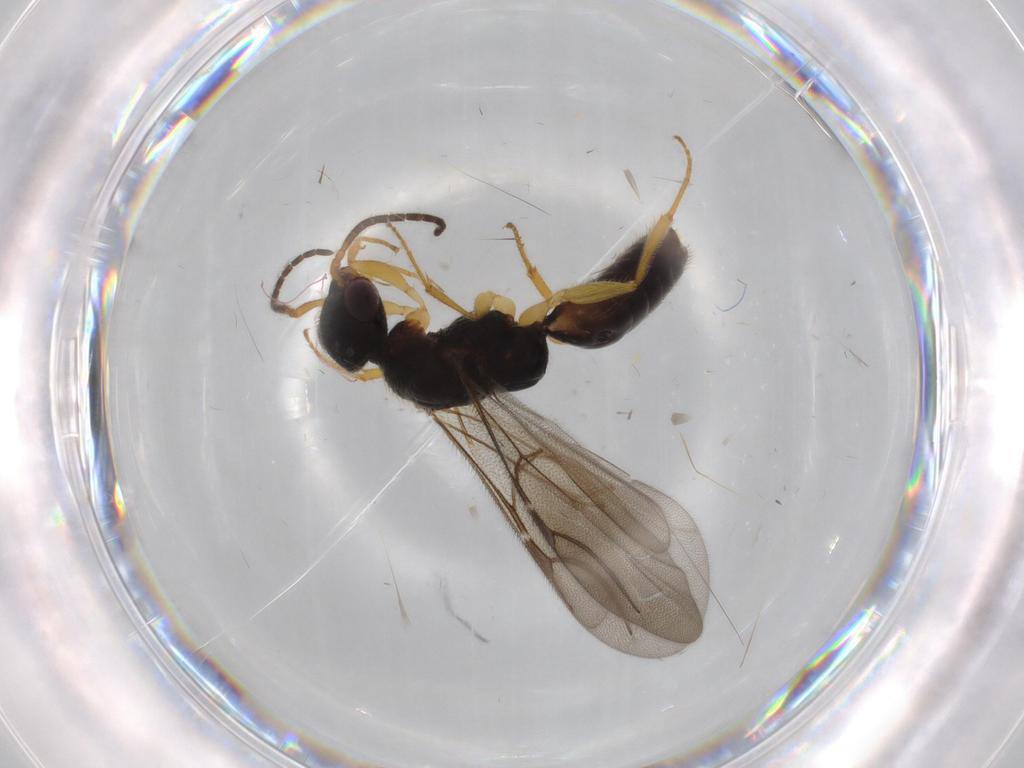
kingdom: Animalia
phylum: Arthropoda
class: Insecta
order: Hymenoptera
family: Bethylidae
